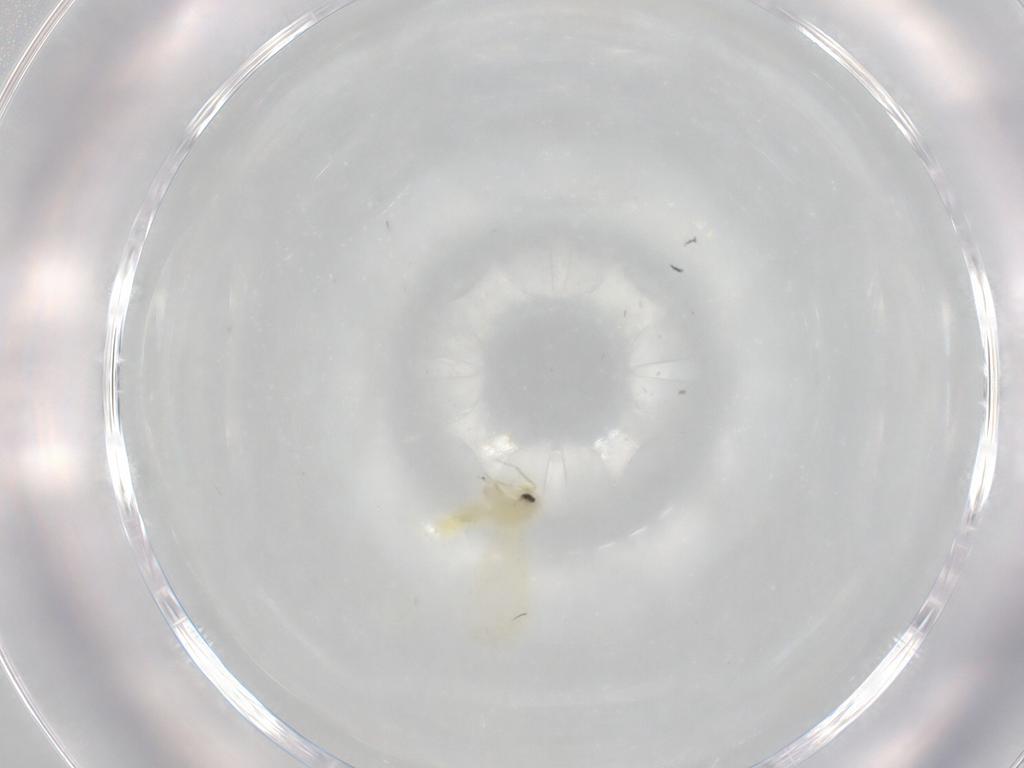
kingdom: Animalia
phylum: Arthropoda
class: Insecta
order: Hemiptera
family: Aleyrodidae
